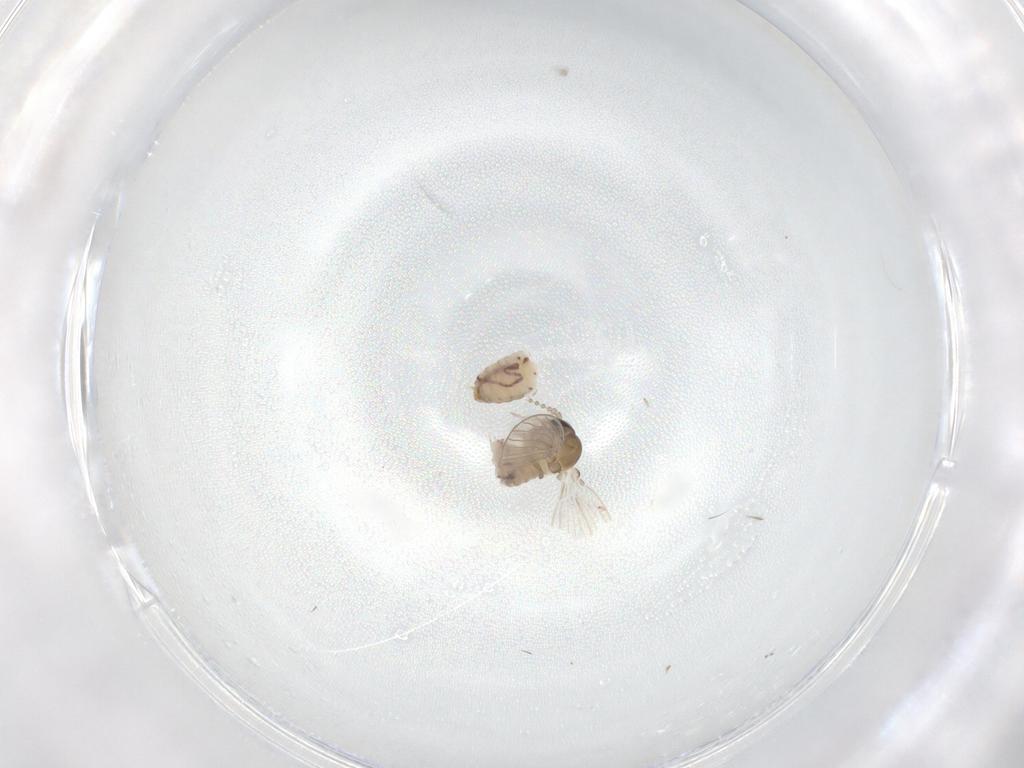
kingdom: Animalia
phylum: Arthropoda
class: Insecta
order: Diptera
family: Psychodidae
